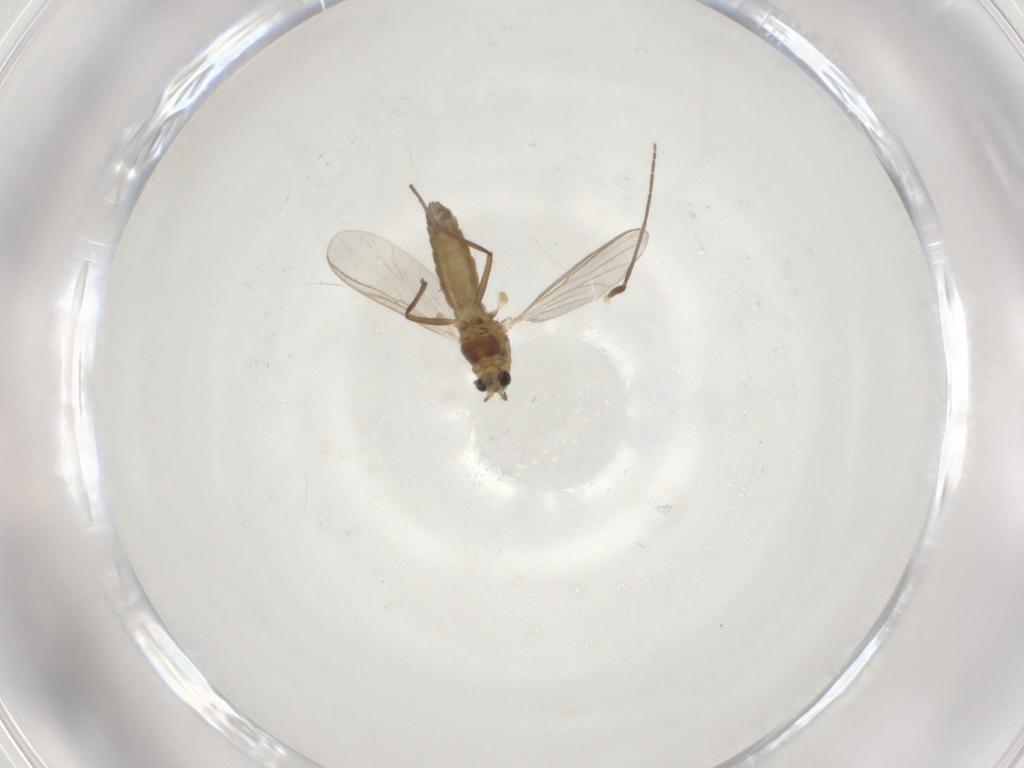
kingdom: Animalia
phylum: Arthropoda
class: Insecta
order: Diptera
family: Chironomidae
